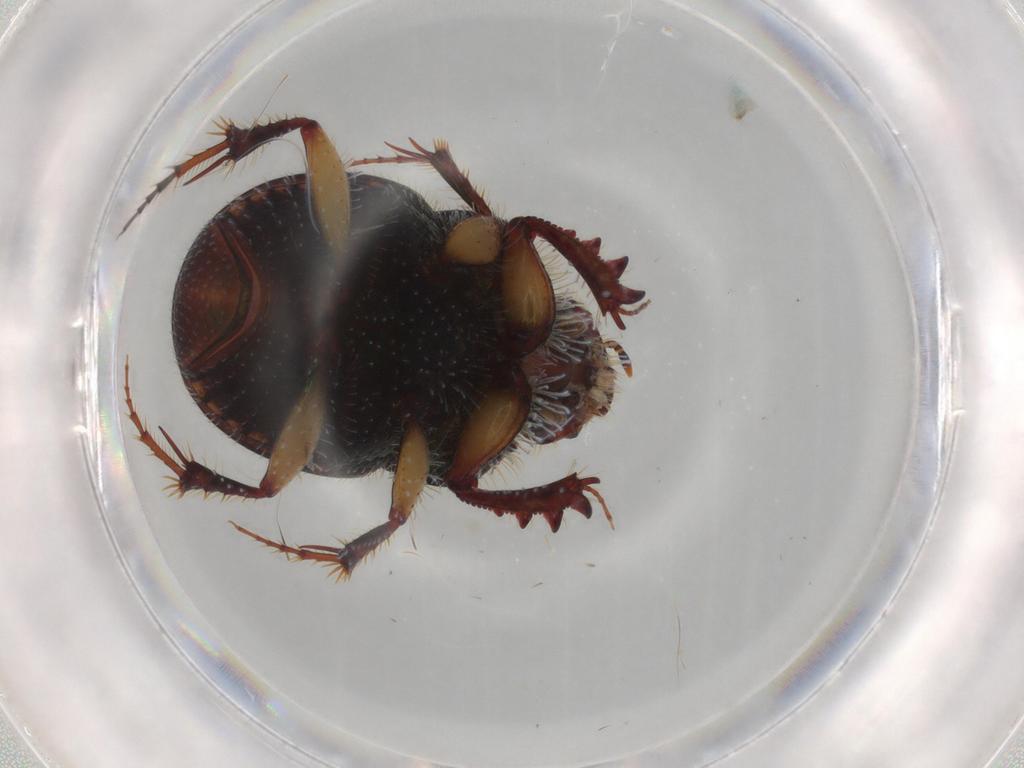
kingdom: Animalia
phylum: Arthropoda
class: Insecta
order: Coleoptera
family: Scarabaeidae
